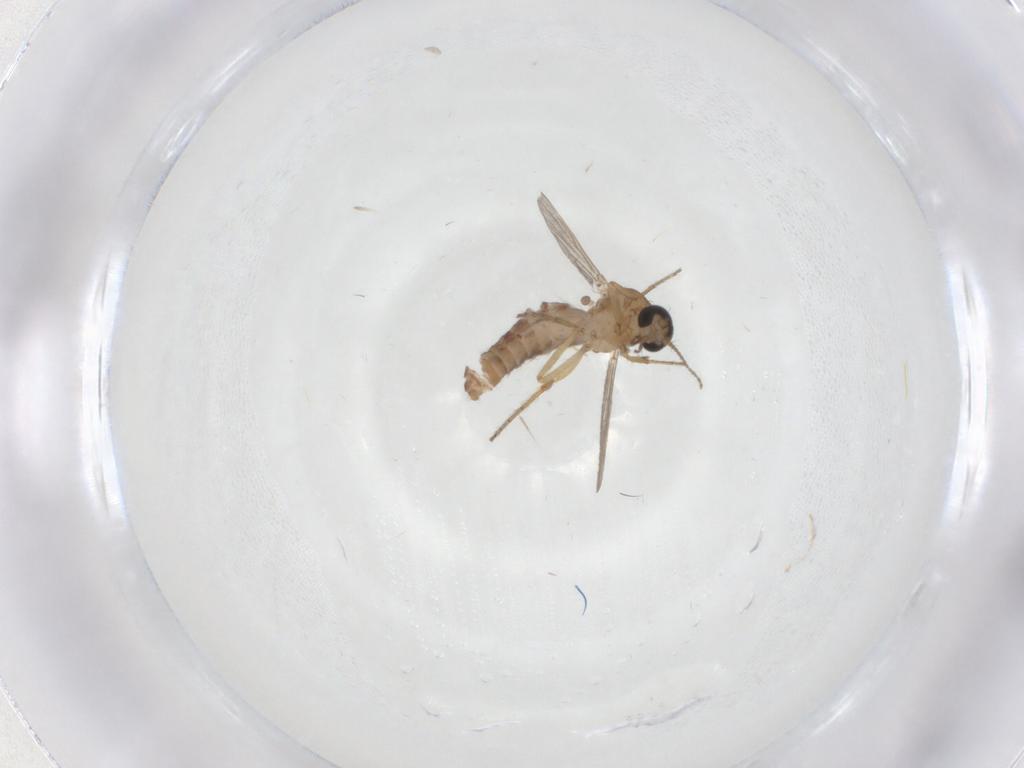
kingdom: Animalia
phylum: Arthropoda
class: Insecta
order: Diptera
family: Ceratopogonidae
